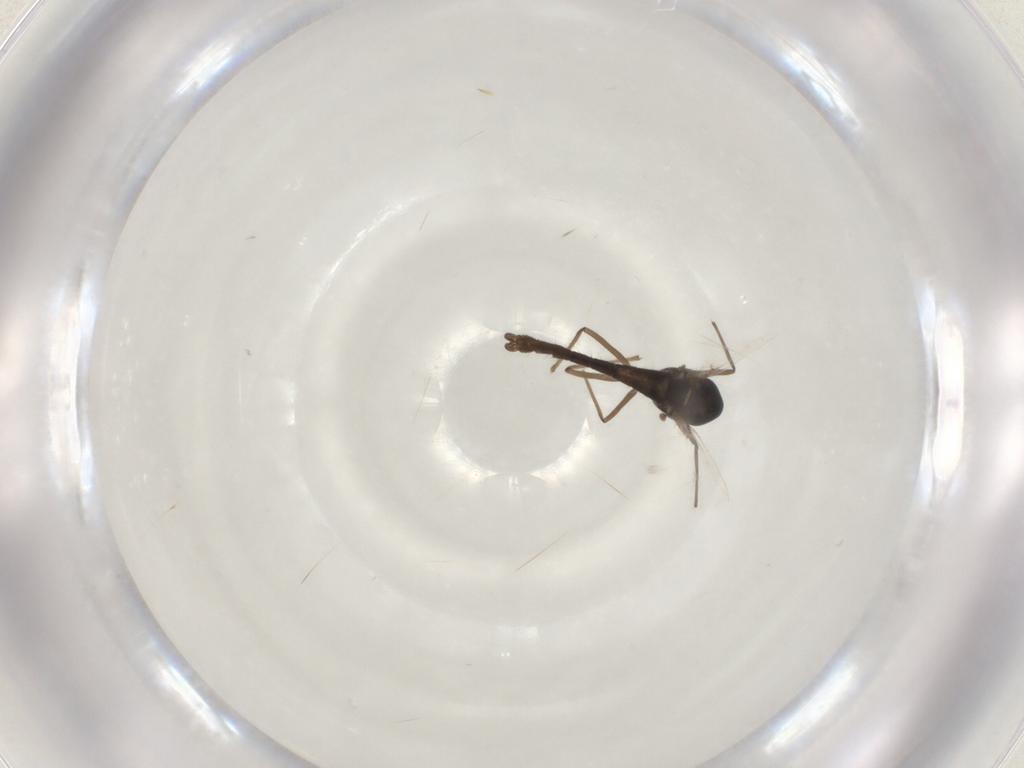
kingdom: Animalia
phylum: Arthropoda
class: Insecta
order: Diptera
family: Chironomidae
